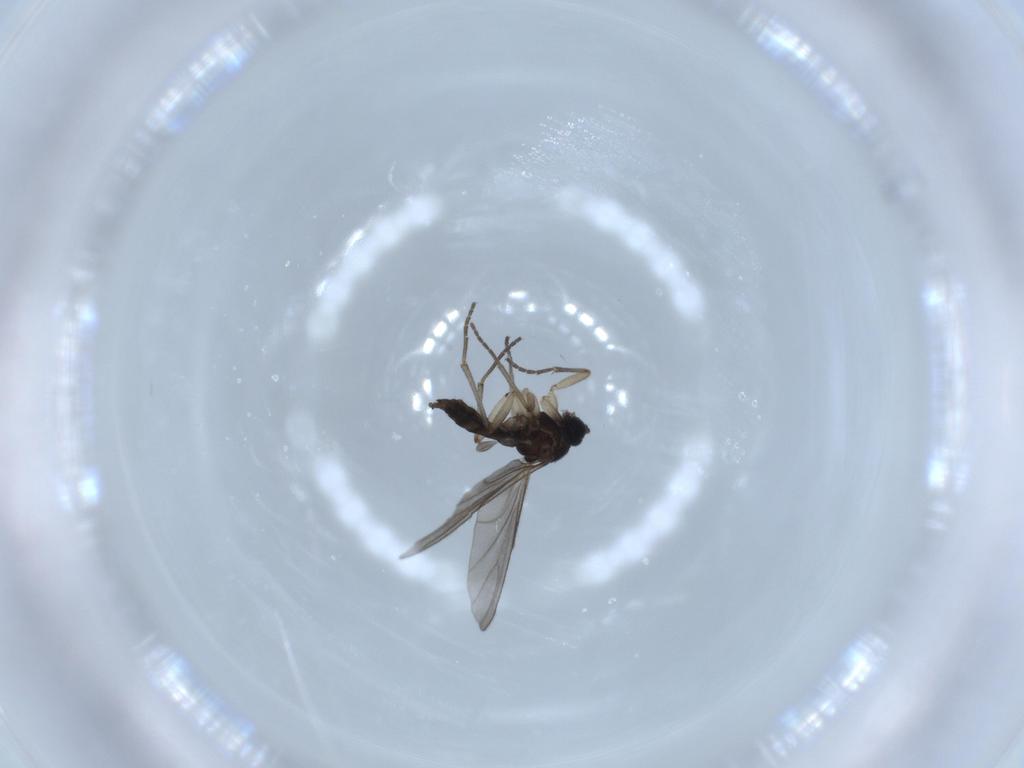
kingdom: Animalia
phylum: Arthropoda
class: Insecta
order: Diptera
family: Sciaridae
